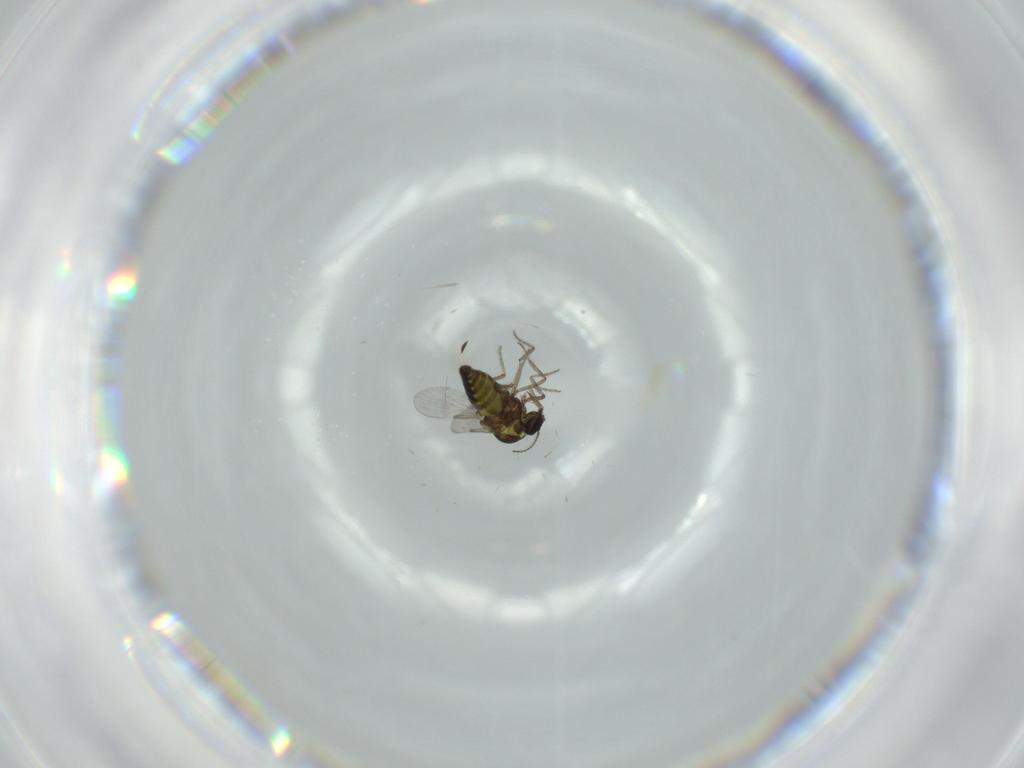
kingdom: Animalia
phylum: Arthropoda
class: Insecta
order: Diptera
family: Ceratopogonidae
